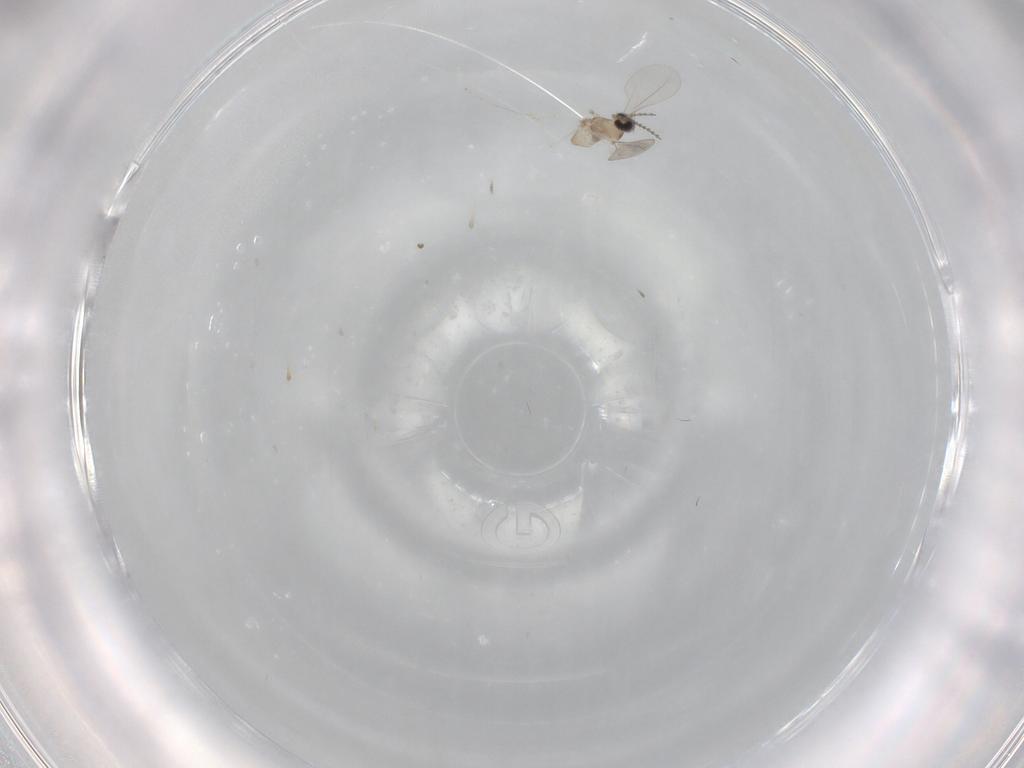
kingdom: Animalia
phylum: Arthropoda
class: Insecta
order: Diptera
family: Cecidomyiidae
